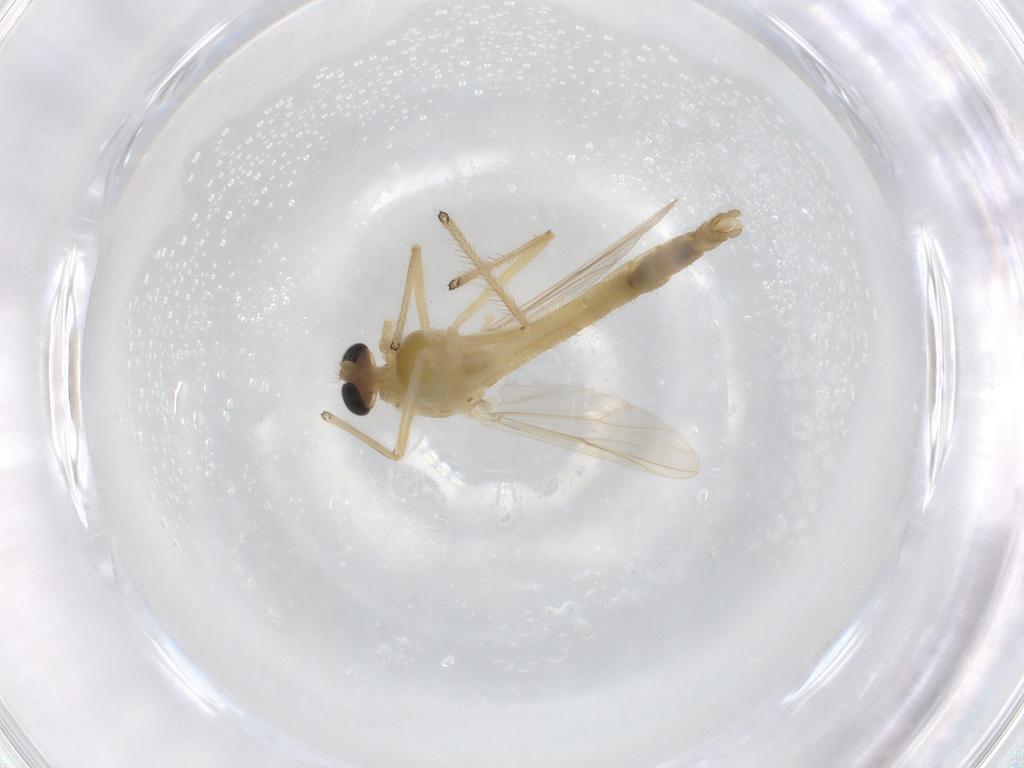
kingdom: Animalia
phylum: Arthropoda
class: Insecta
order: Diptera
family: Chironomidae
